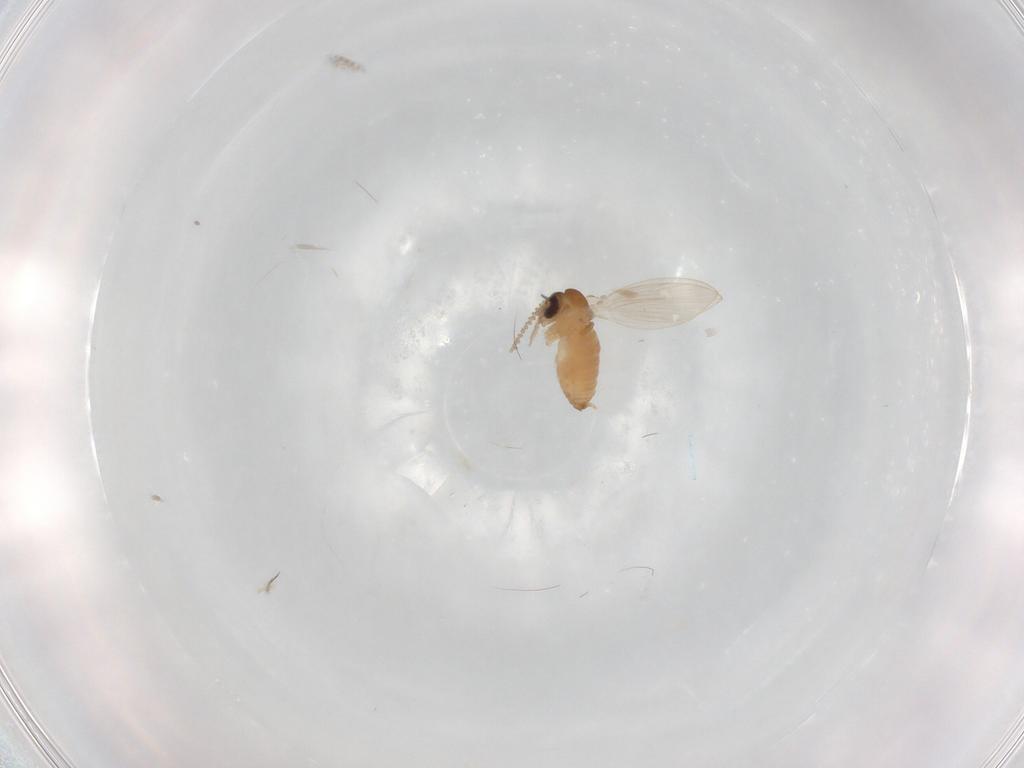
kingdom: Animalia
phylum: Arthropoda
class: Insecta
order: Diptera
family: Psychodidae
